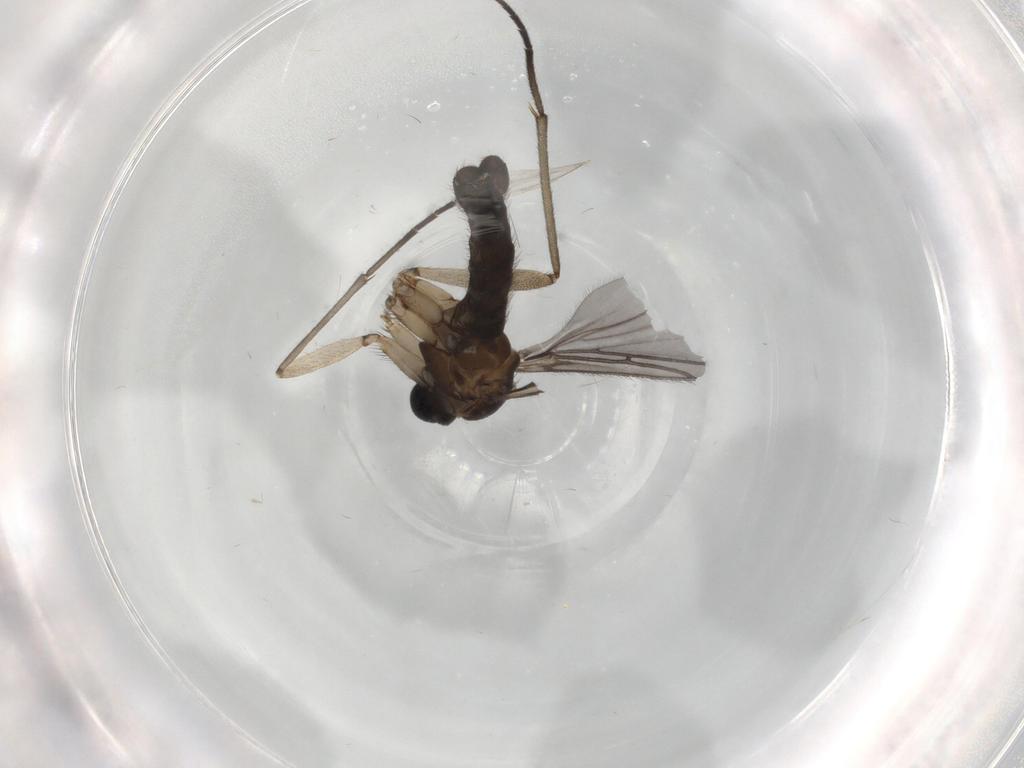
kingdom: Animalia
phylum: Arthropoda
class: Insecta
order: Diptera
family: Sciaridae
